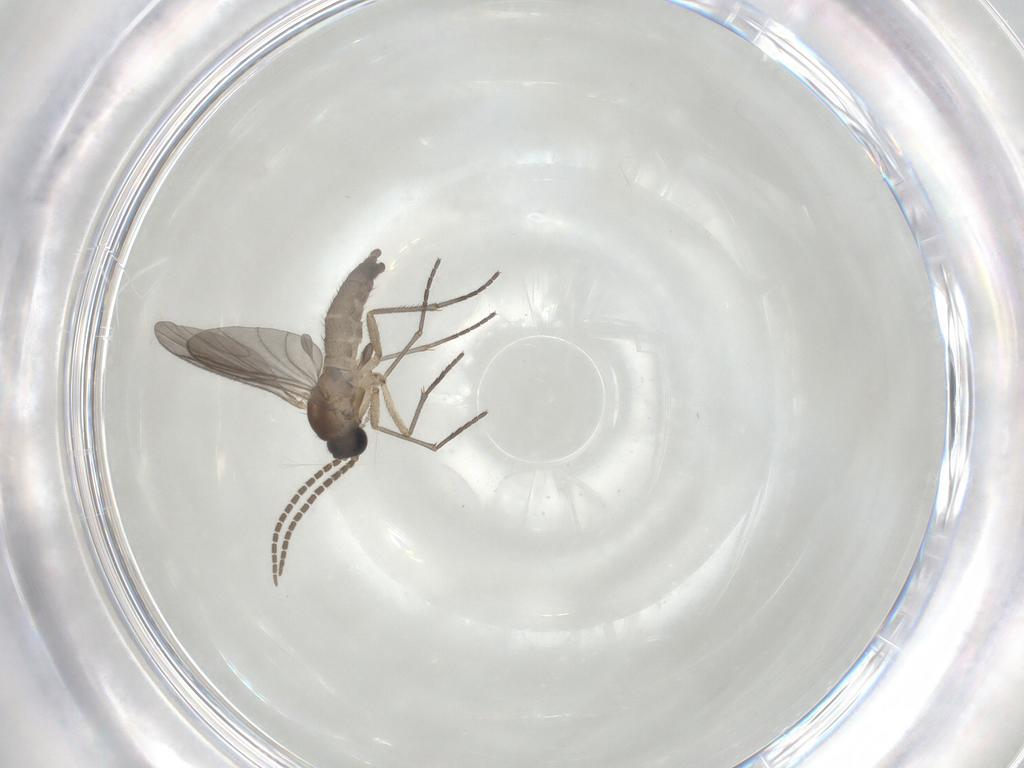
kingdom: Animalia
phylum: Arthropoda
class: Insecta
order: Diptera
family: Sciaridae
